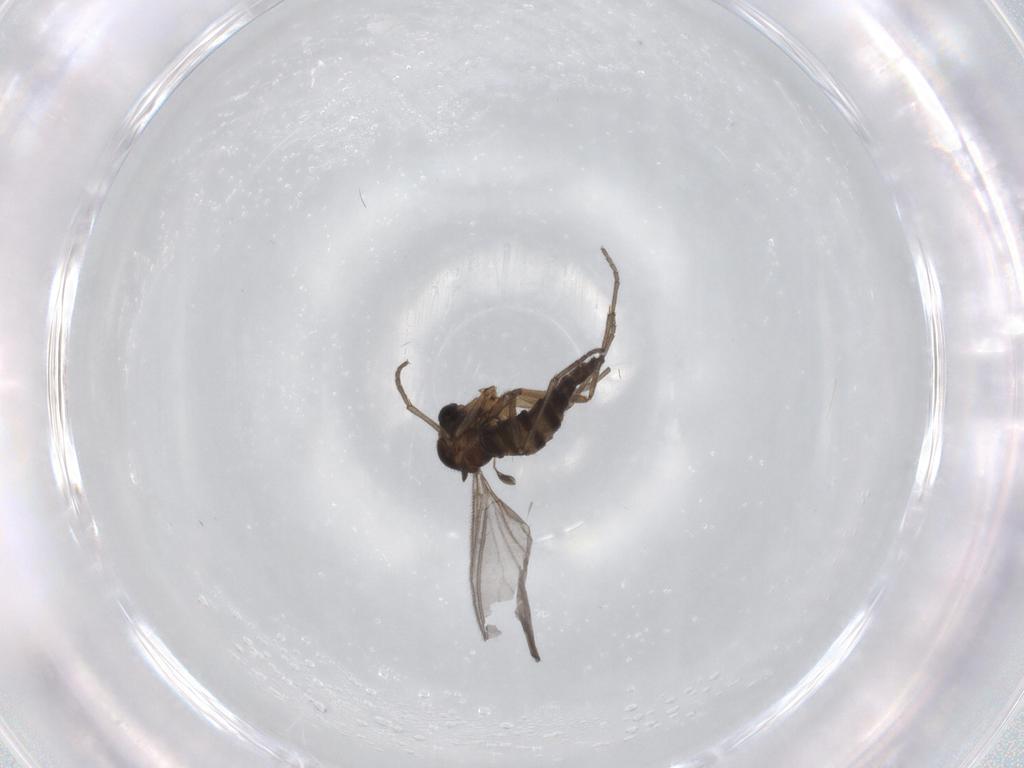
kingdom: Animalia
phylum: Arthropoda
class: Insecta
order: Diptera
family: Sciaridae
